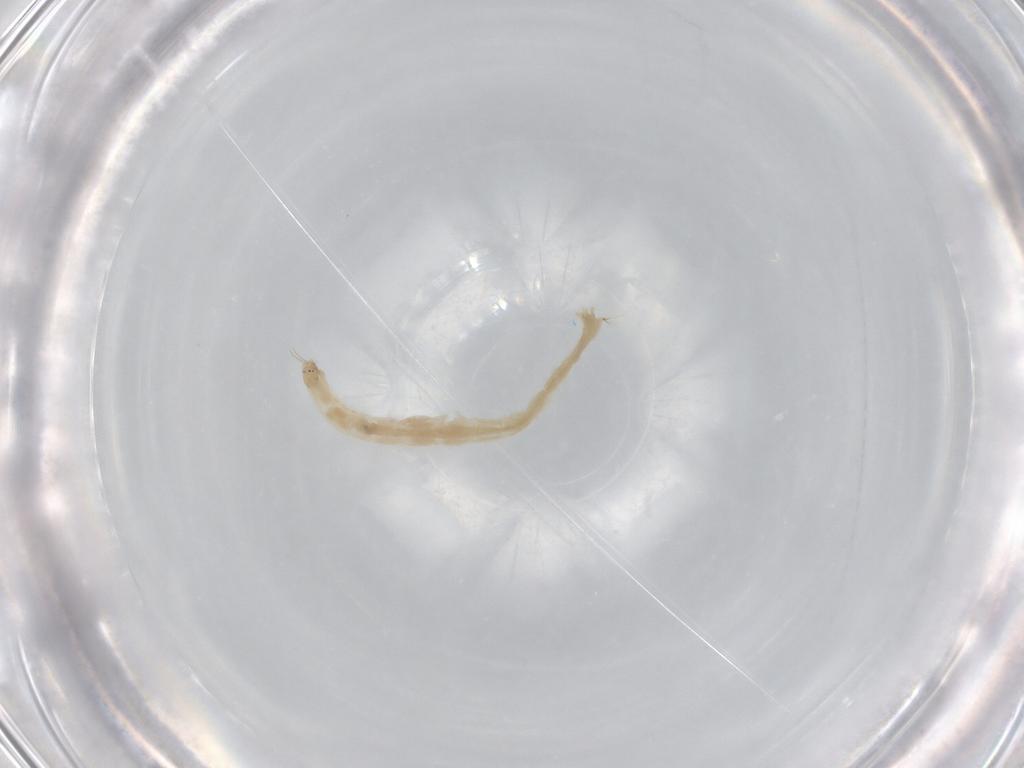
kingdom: Animalia
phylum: Arthropoda
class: Insecta
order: Diptera
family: Chironomidae
